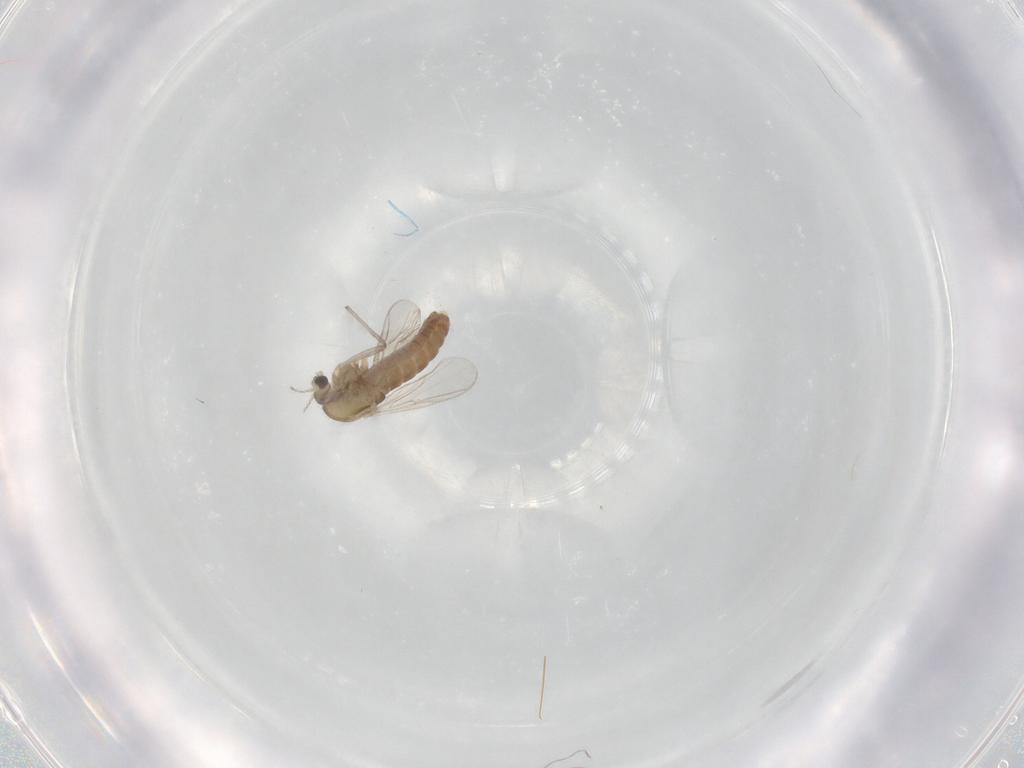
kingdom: Animalia
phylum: Arthropoda
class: Insecta
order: Diptera
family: Chironomidae
